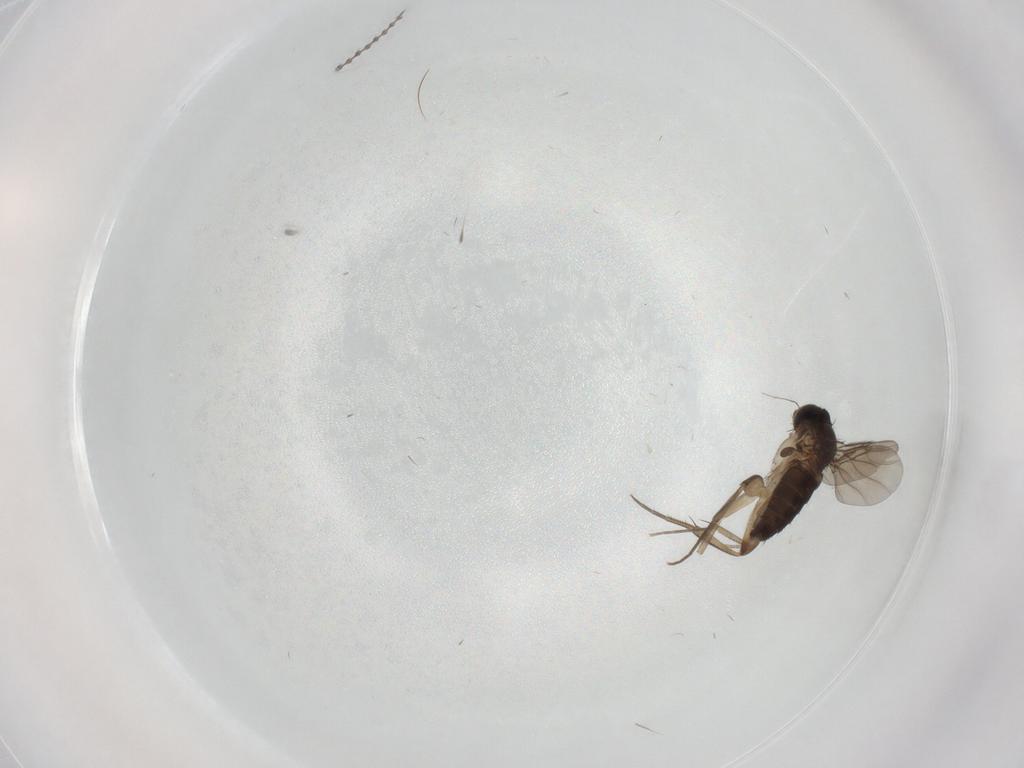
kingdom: Animalia
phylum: Arthropoda
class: Insecta
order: Diptera
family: Phoridae
